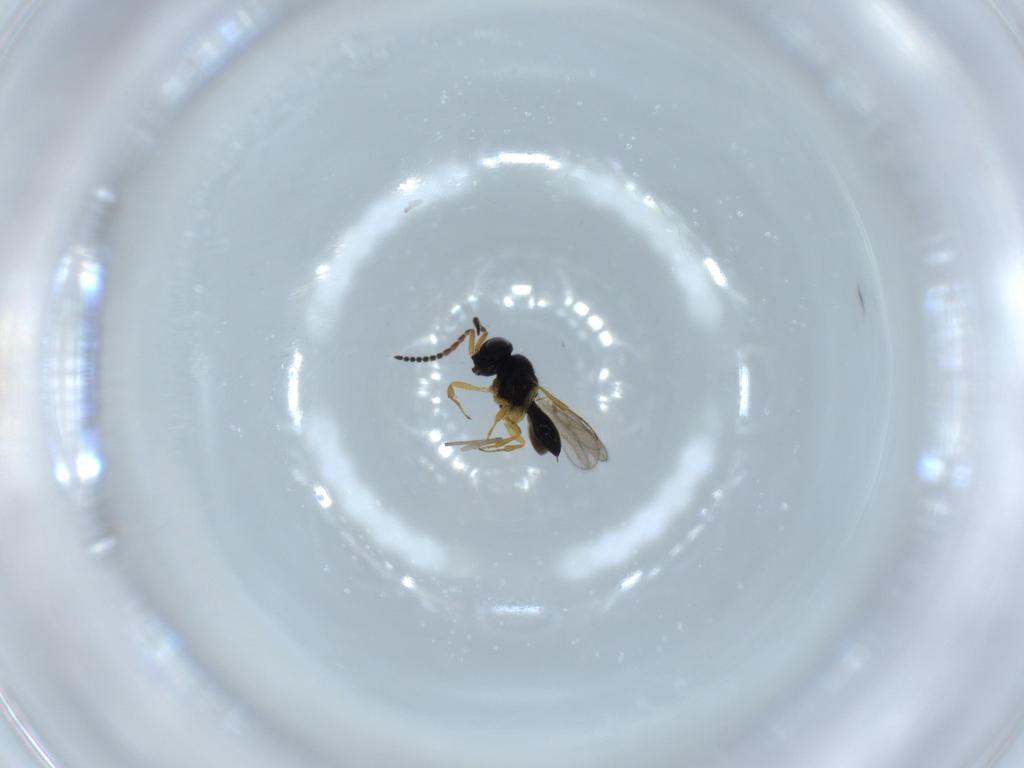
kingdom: Animalia
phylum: Arthropoda
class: Insecta
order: Hymenoptera
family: Scelionidae
